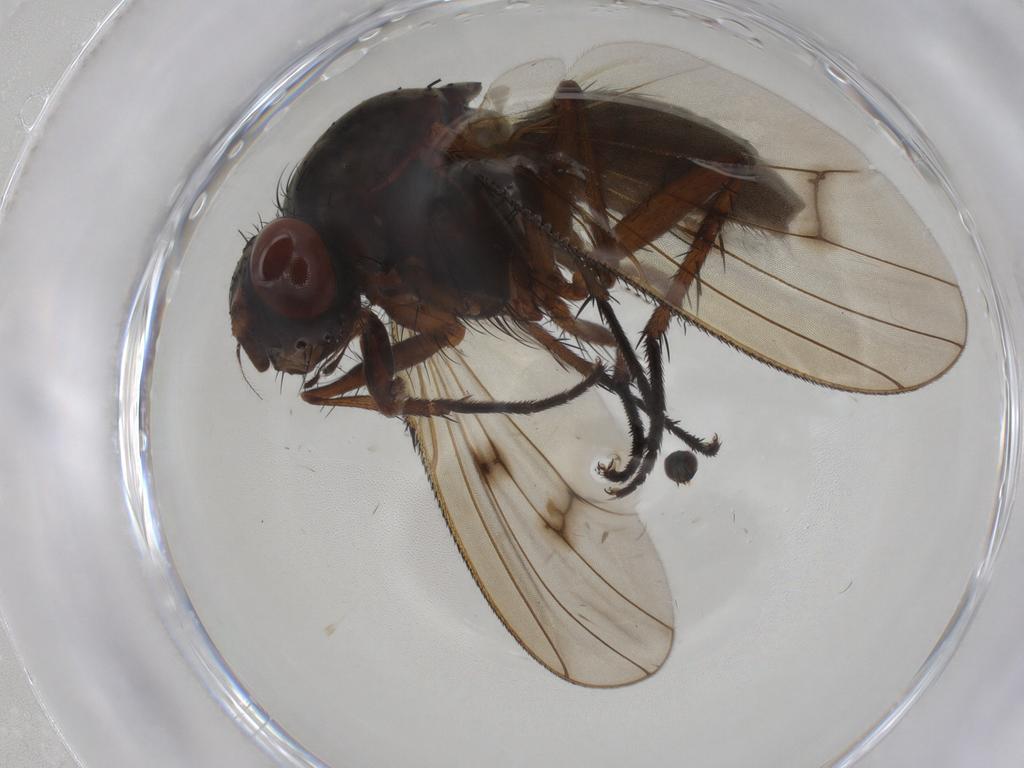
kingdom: Animalia
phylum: Arthropoda
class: Insecta
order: Diptera
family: Anthomyiidae
